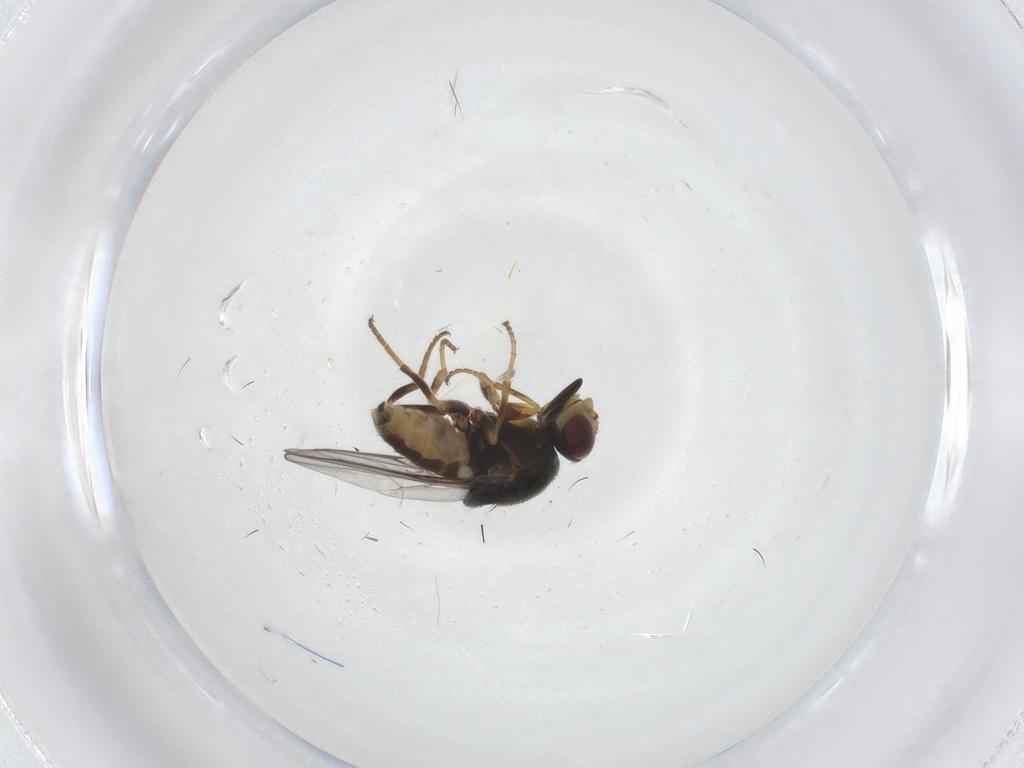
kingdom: Animalia
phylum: Arthropoda
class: Insecta
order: Diptera
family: Chloropidae
